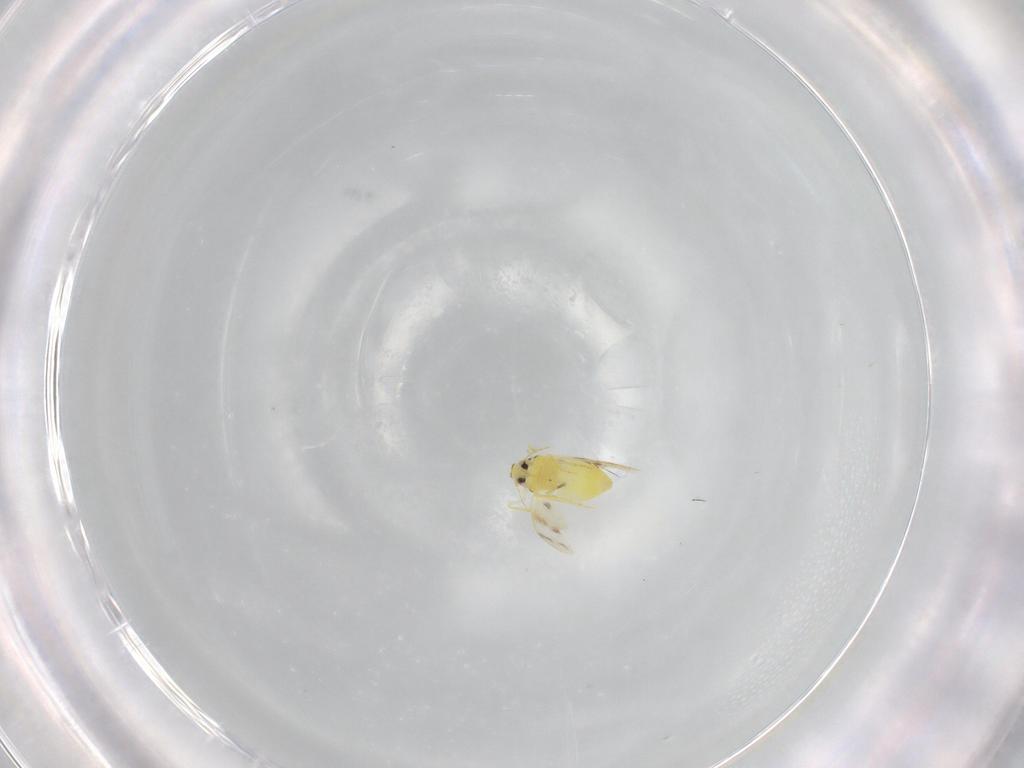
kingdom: Animalia
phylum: Arthropoda
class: Insecta
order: Hemiptera
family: Aleyrodidae
